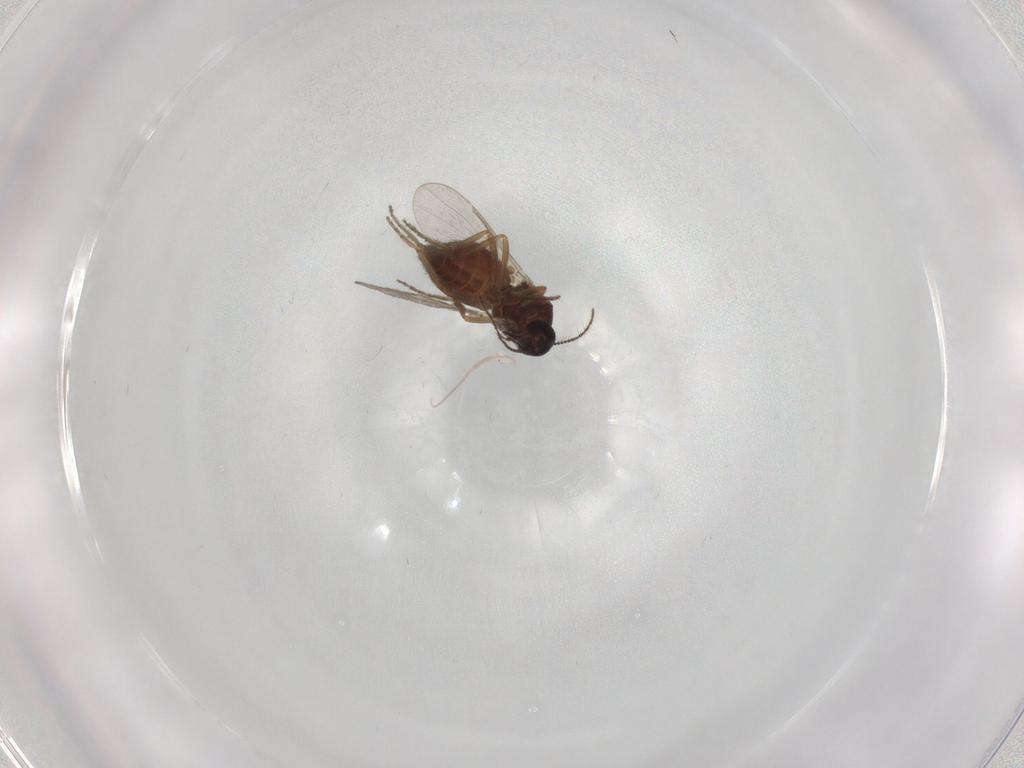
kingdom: Animalia
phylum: Arthropoda
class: Insecta
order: Diptera
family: Ceratopogonidae
